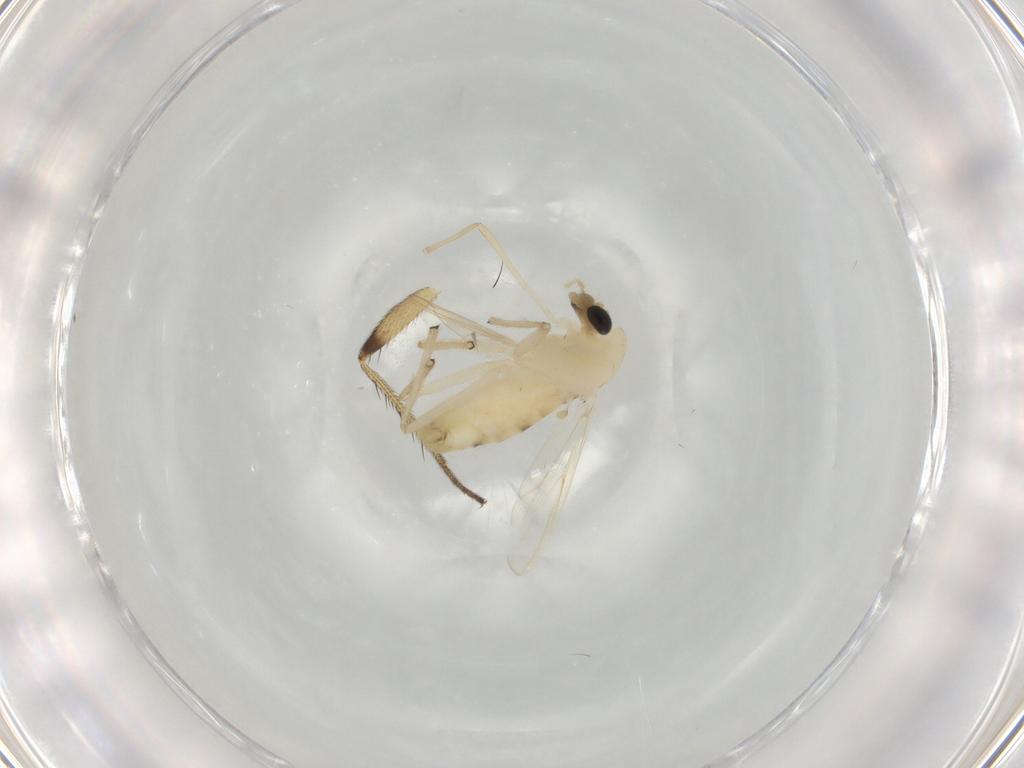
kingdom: Animalia
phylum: Arthropoda
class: Insecta
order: Diptera
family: Chironomidae
